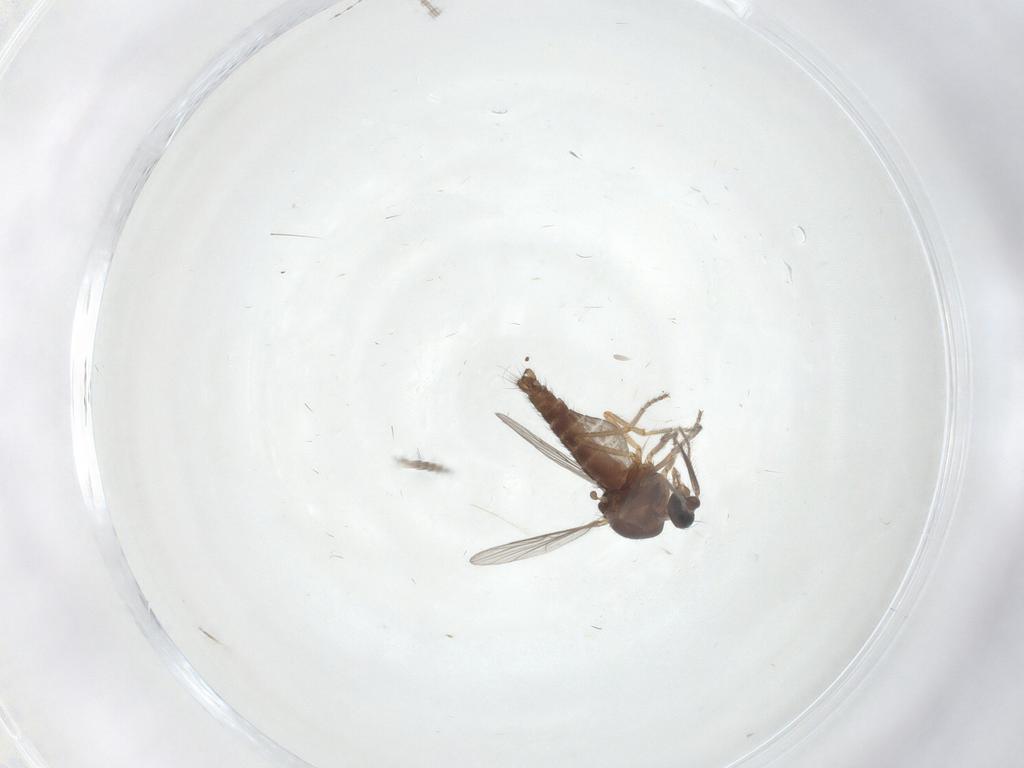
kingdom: Animalia
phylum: Arthropoda
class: Insecta
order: Diptera
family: Ceratopogonidae
